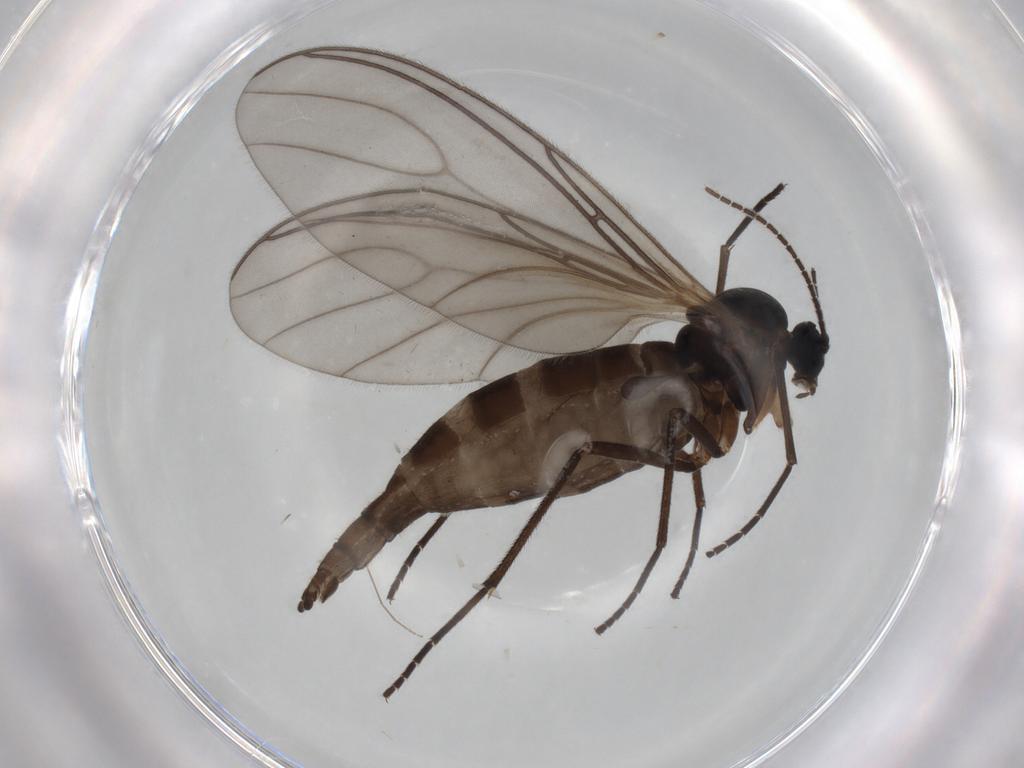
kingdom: Animalia
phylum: Arthropoda
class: Insecta
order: Diptera
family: Sciaridae
